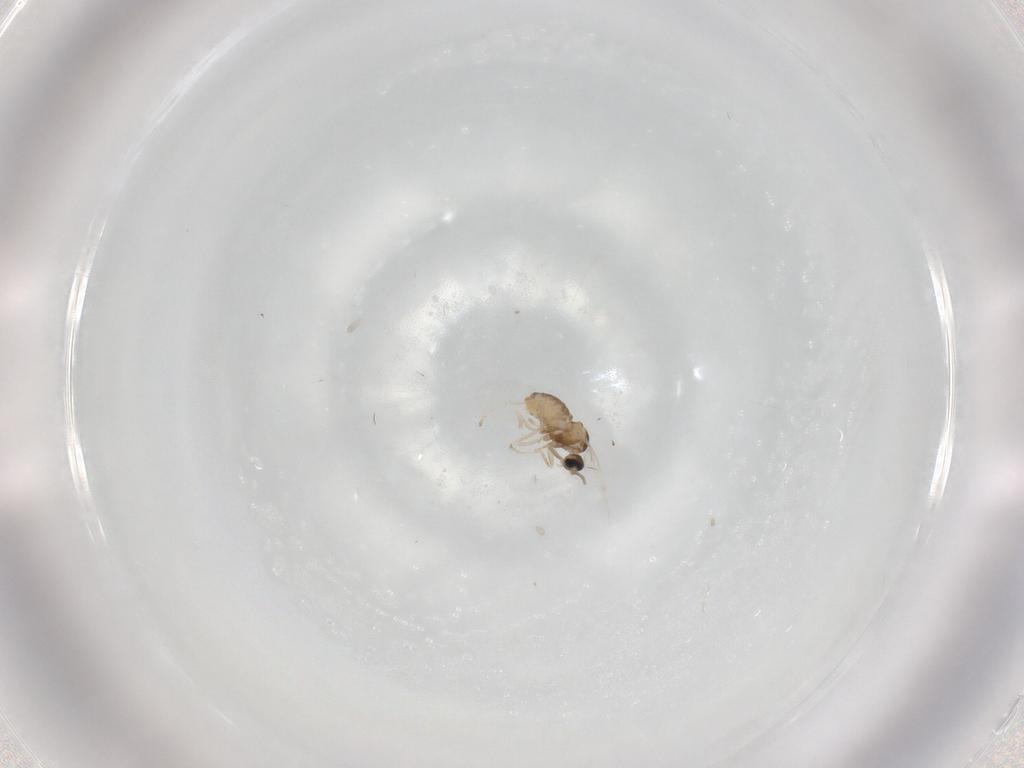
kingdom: Animalia
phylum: Arthropoda
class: Insecta
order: Diptera
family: Cecidomyiidae
